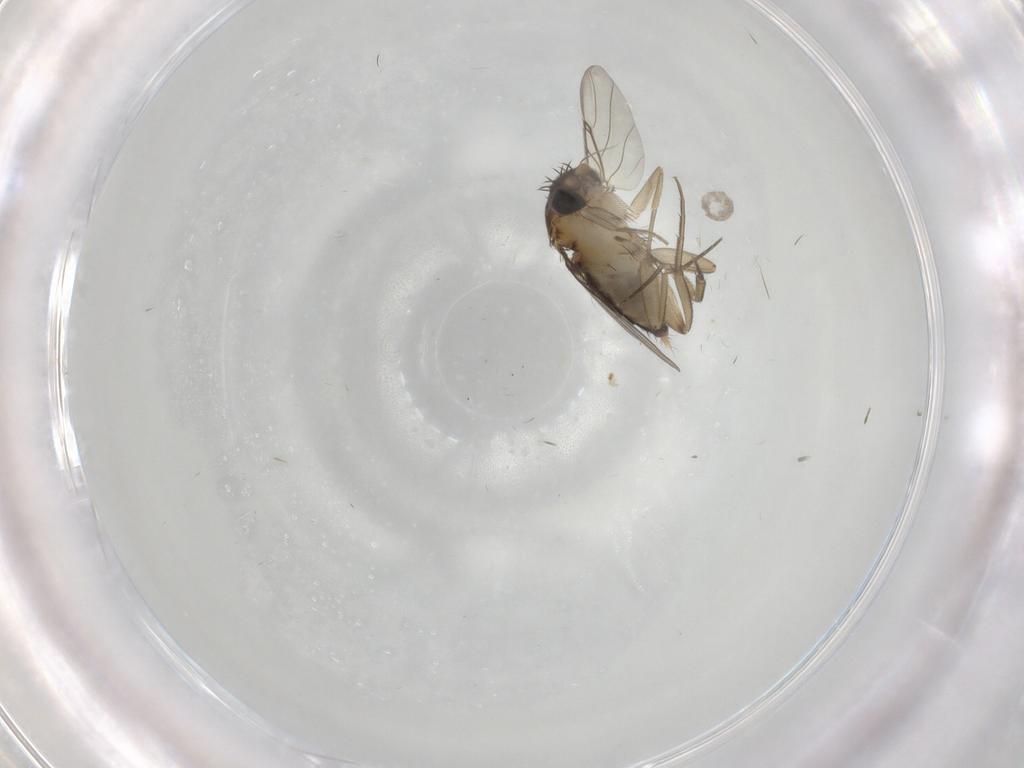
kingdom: Animalia
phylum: Arthropoda
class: Insecta
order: Diptera
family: Phoridae
